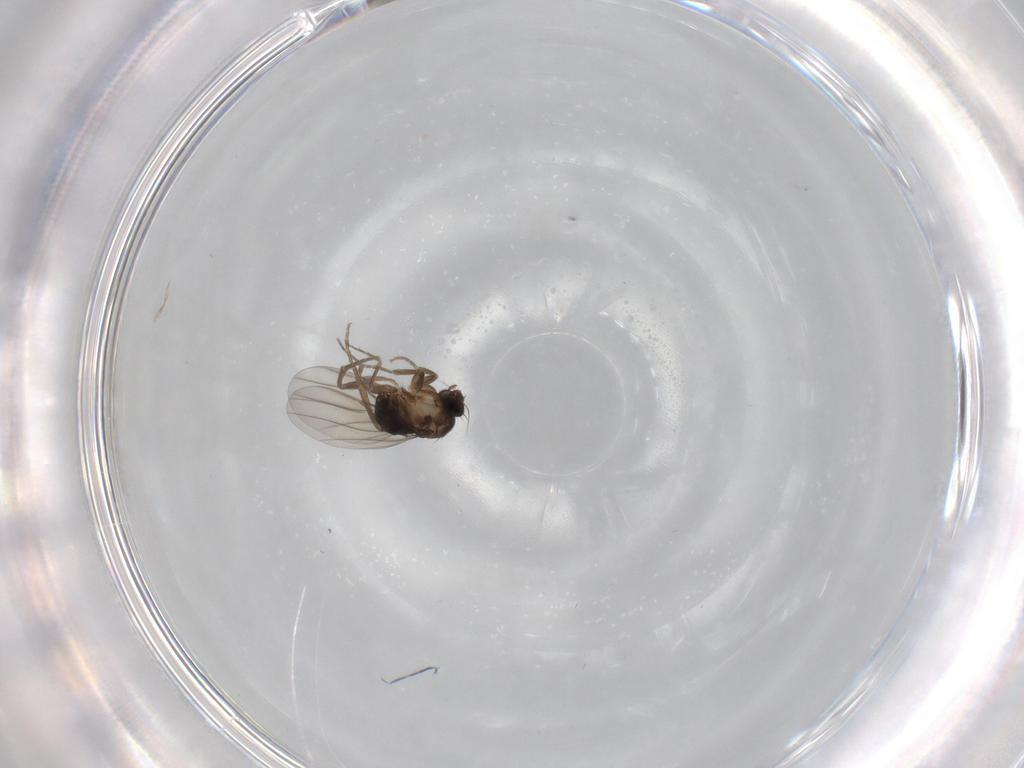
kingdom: Animalia
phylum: Arthropoda
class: Insecta
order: Diptera
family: Phoridae
